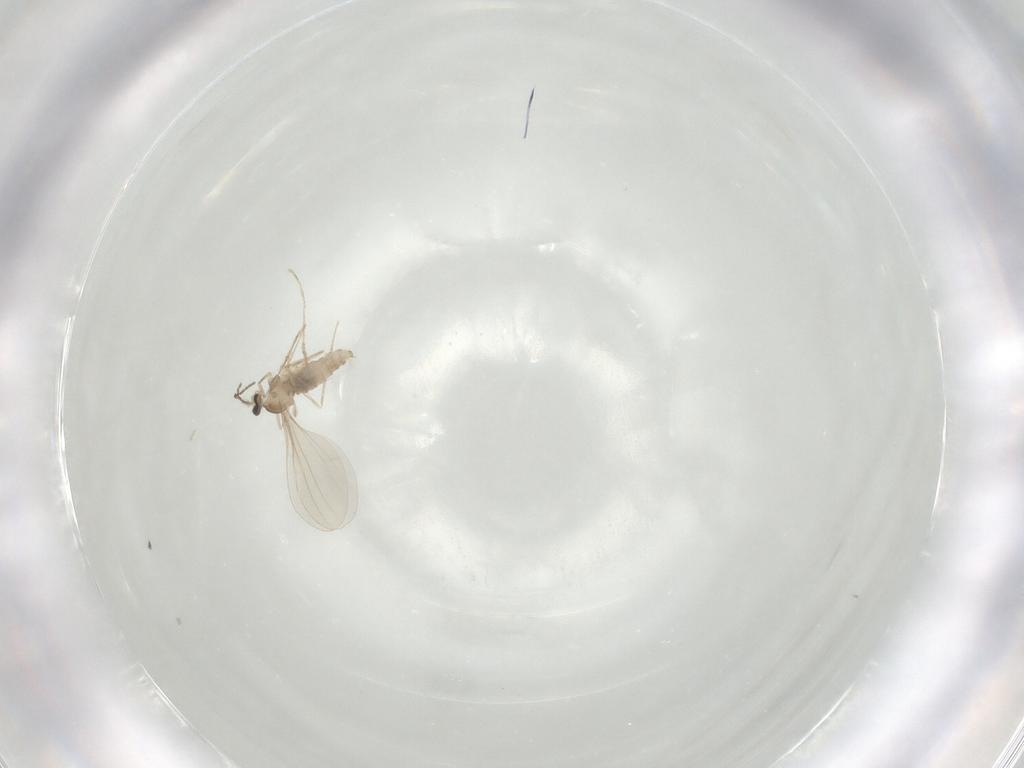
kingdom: Animalia
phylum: Arthropoda
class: Insecta
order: Diptera
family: Cecidomyiidae
